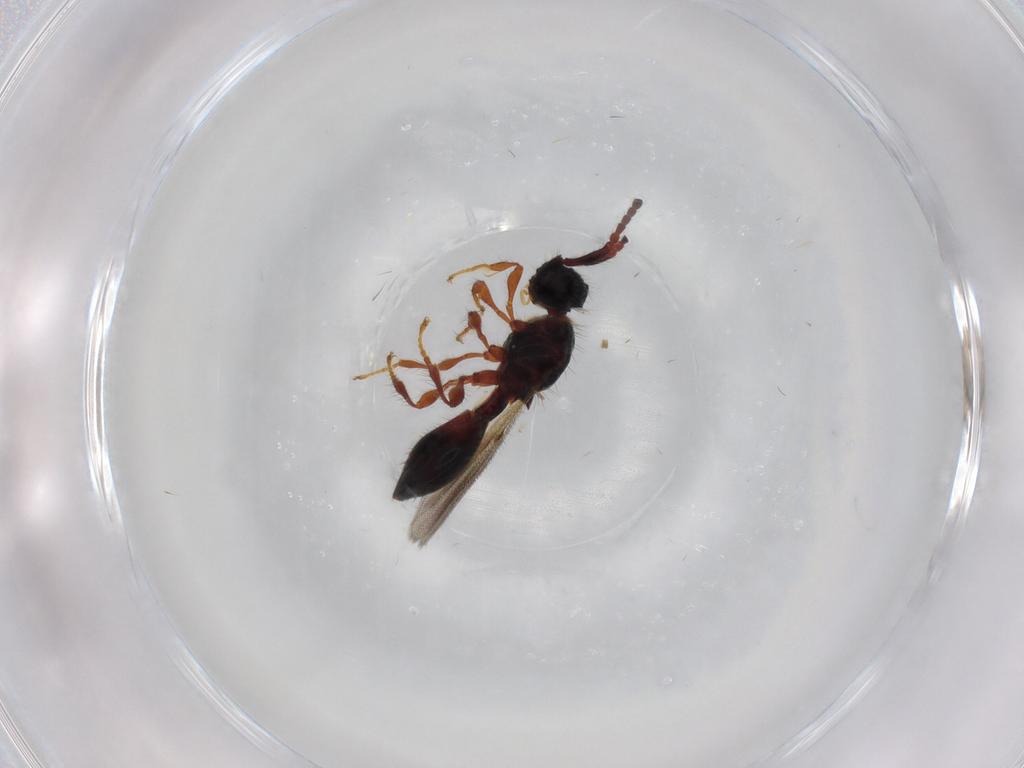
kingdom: Animalia
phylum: Arthropoda
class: Insecta
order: Hymenoptera
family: Diapriidae
